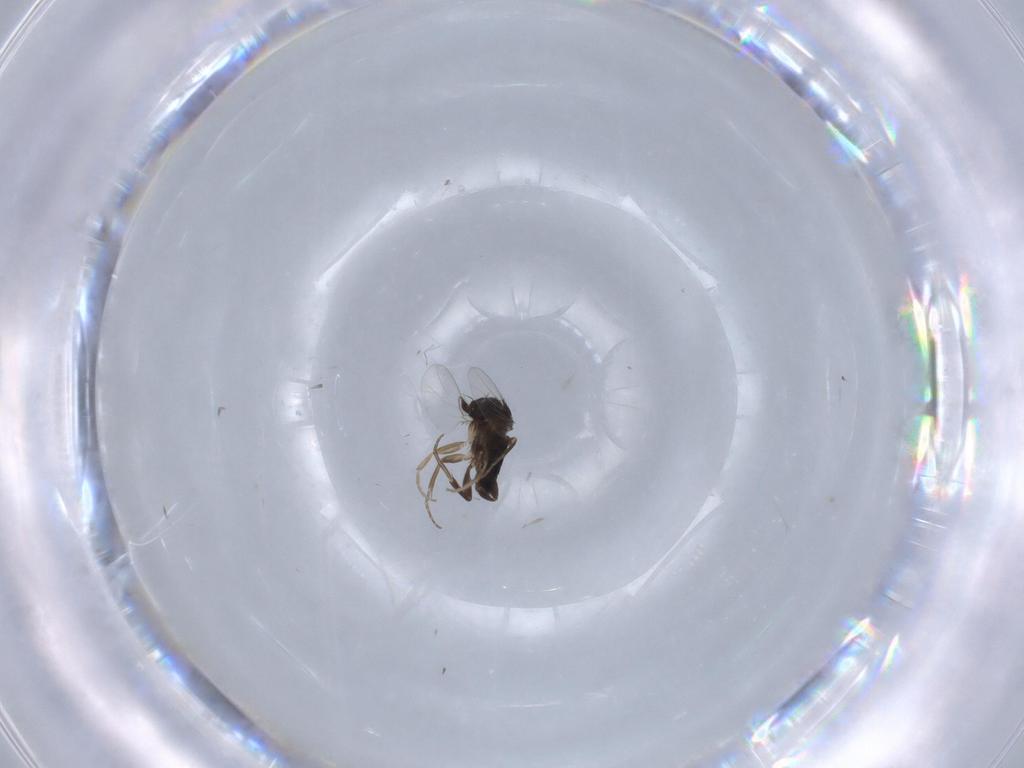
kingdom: Animalia
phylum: Arthropoda
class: Insecta
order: Diptera
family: Phoridae
